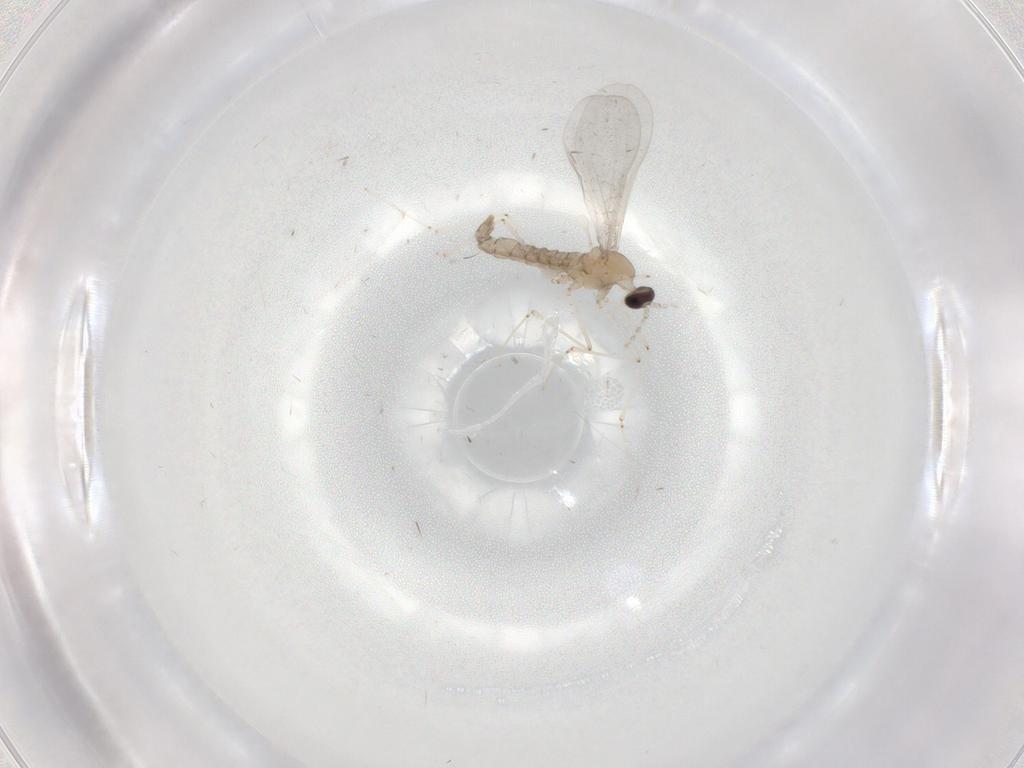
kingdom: Animalia
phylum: Arthropoda
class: Insecta
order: Diptera
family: Cecidomyiidae
